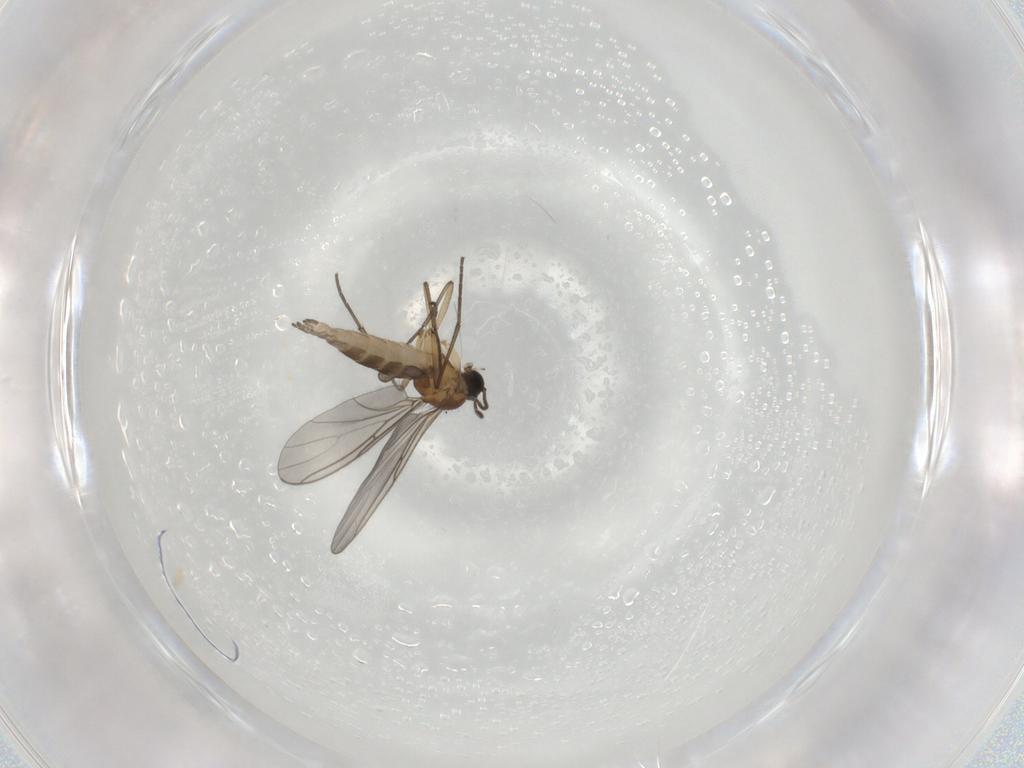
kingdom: Animalia
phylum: Arthropoda
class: Insecta
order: Diptera
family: Sciaridae
